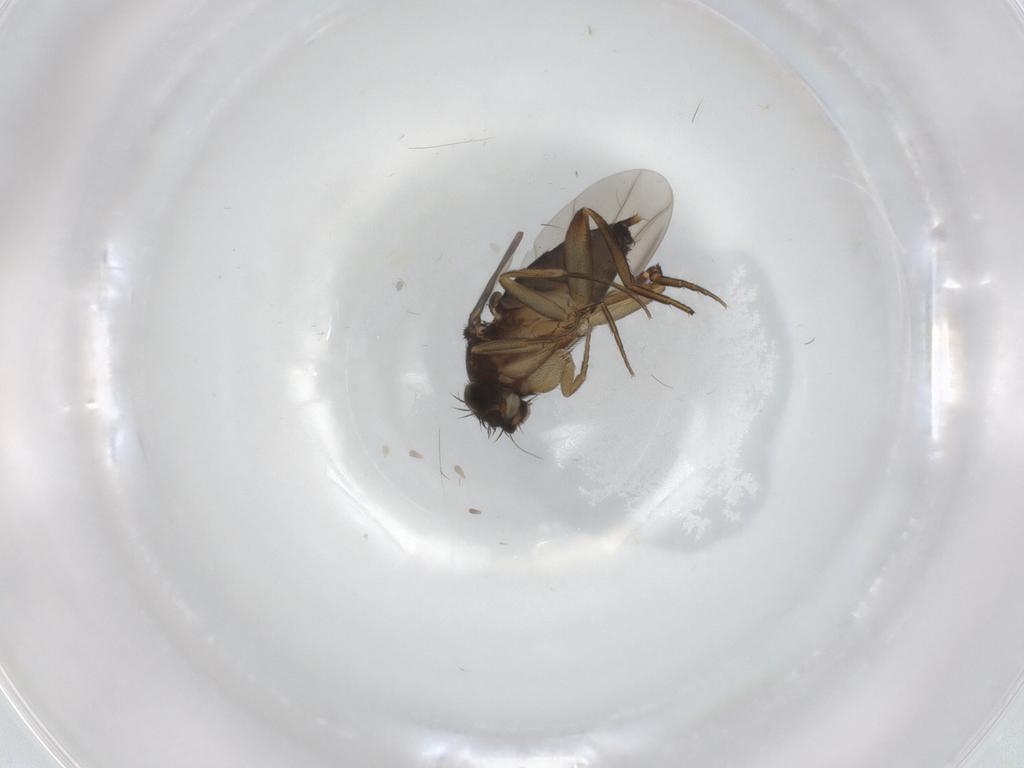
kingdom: Animalia
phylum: Arthropoda
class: Insecta
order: Diptera
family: Phoridae
